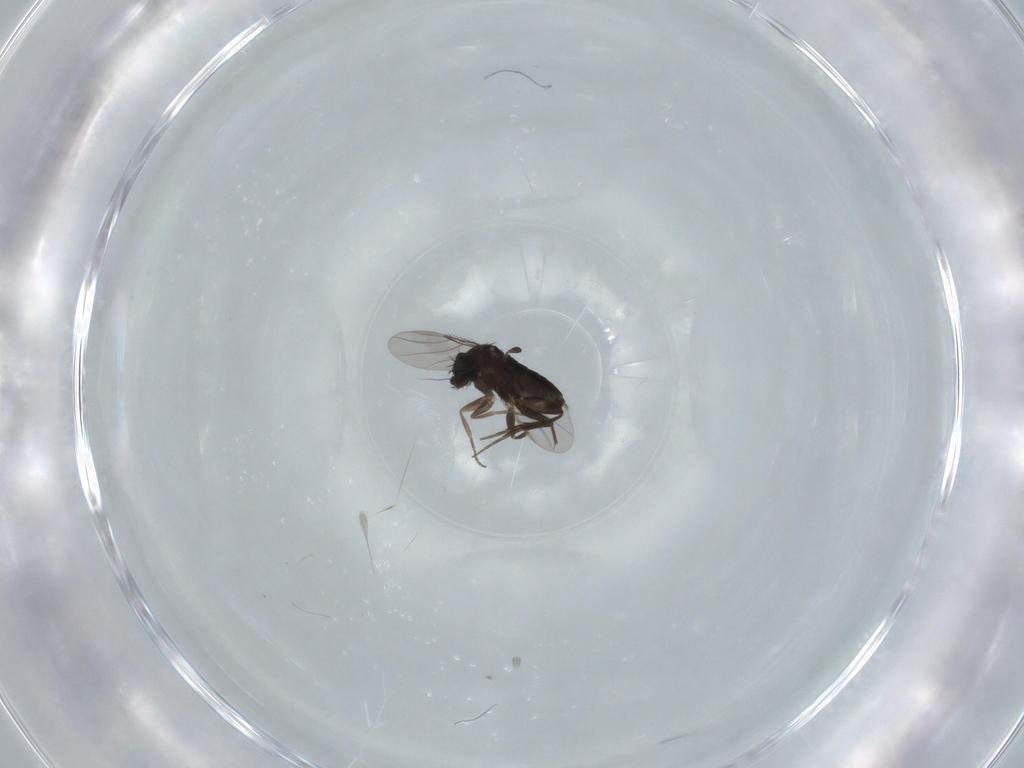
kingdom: Animalia
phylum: Arthropoda
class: Insecta
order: Diptera
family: Phoridae
